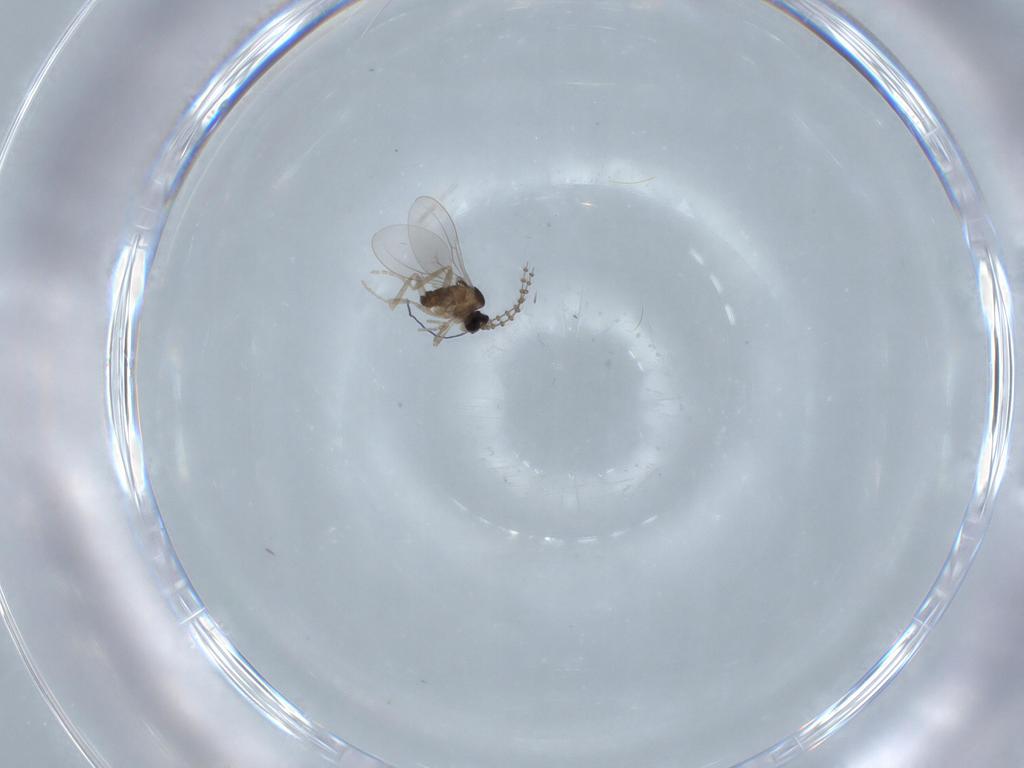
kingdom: Animalia
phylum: Arthropoda
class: Insecta
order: Diptera
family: Cecidomyiidae
